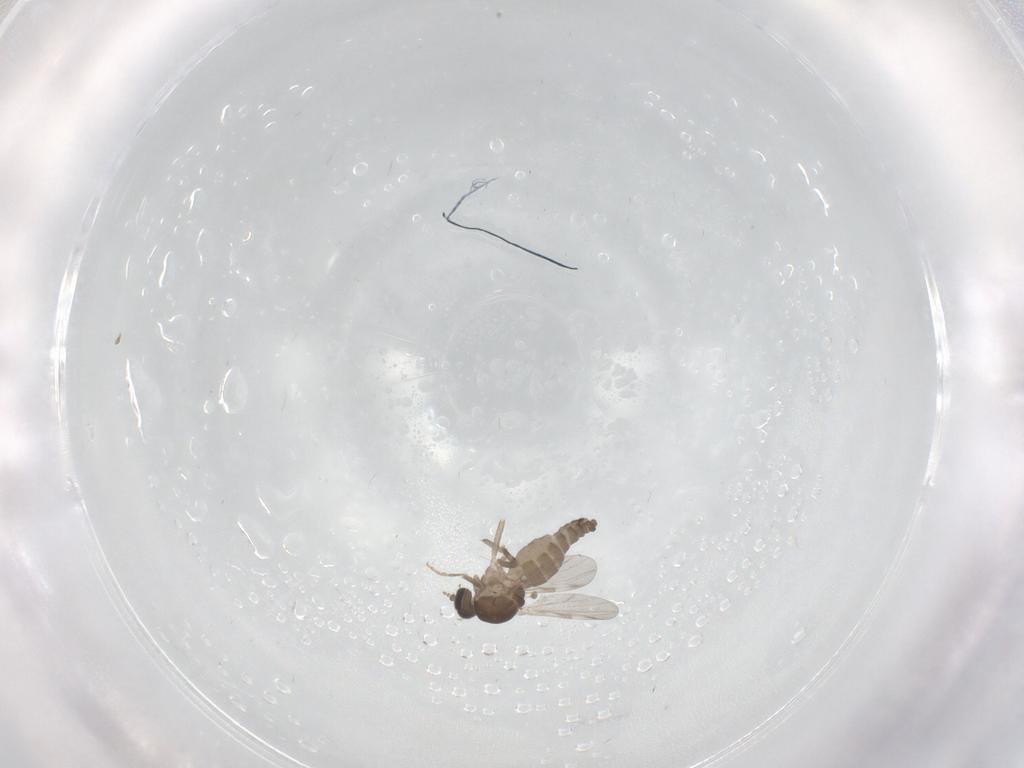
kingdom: Animalia
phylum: Arthropoda
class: Insecta
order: Diptera
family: Ceratopogonidae
